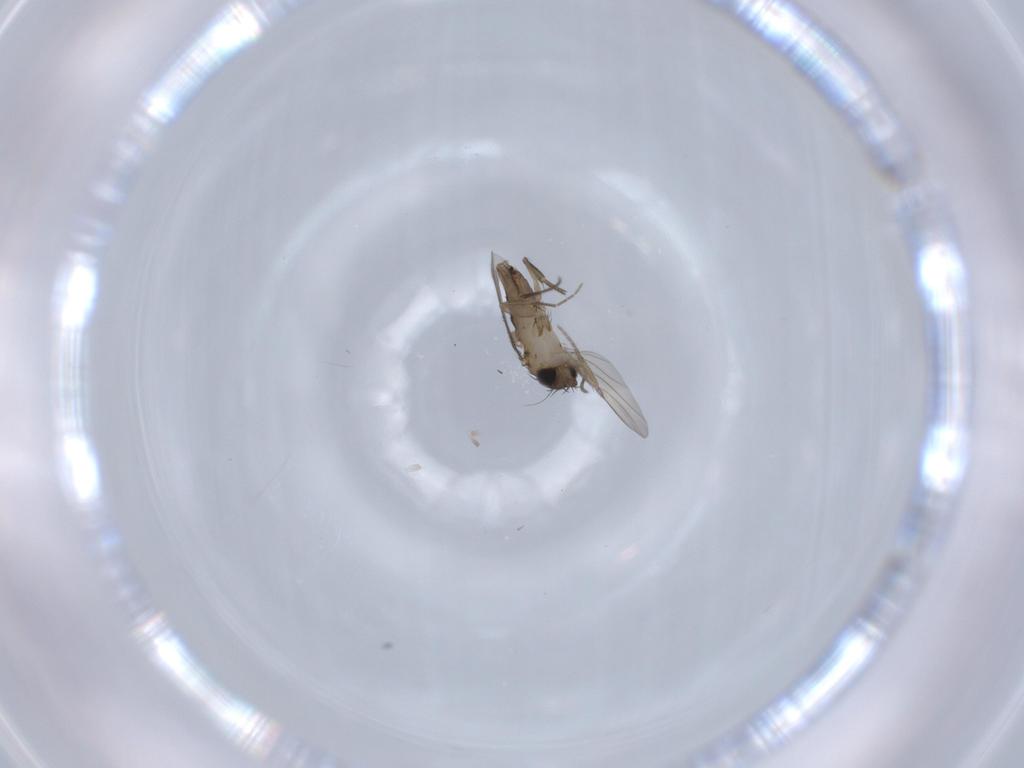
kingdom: Animalia
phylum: Arthropoda
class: Insecta
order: Diptera
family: Phoridae
